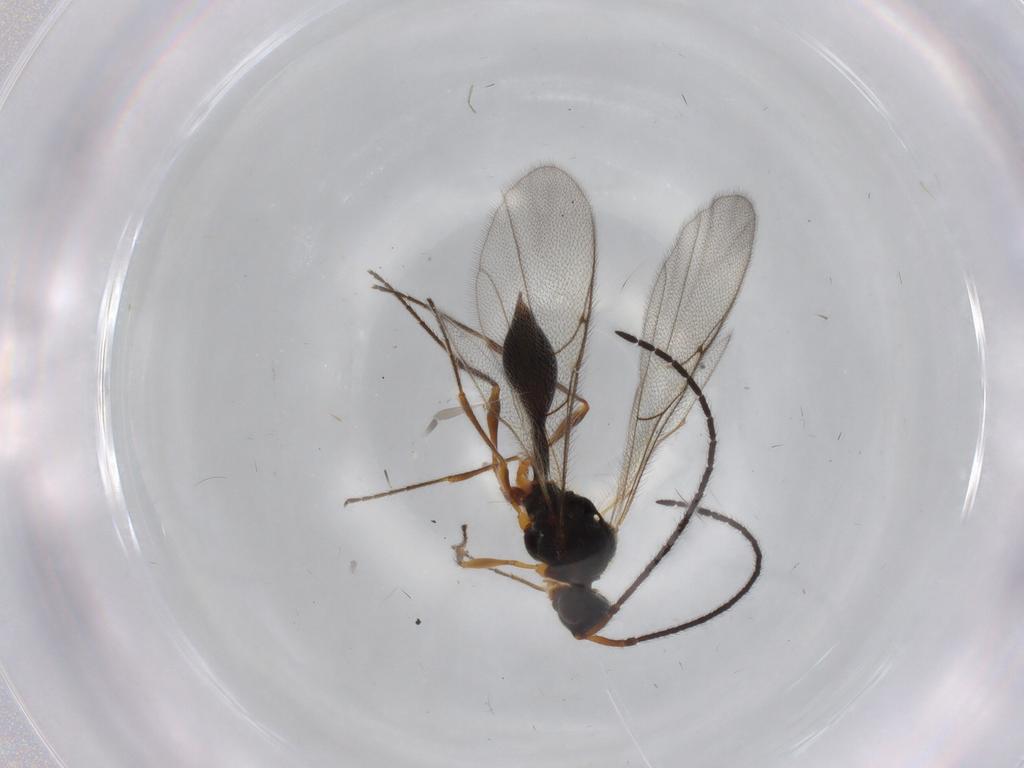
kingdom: Animalia
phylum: Arthropoda
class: Insecta
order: Hymenoptera
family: Diapriidae
